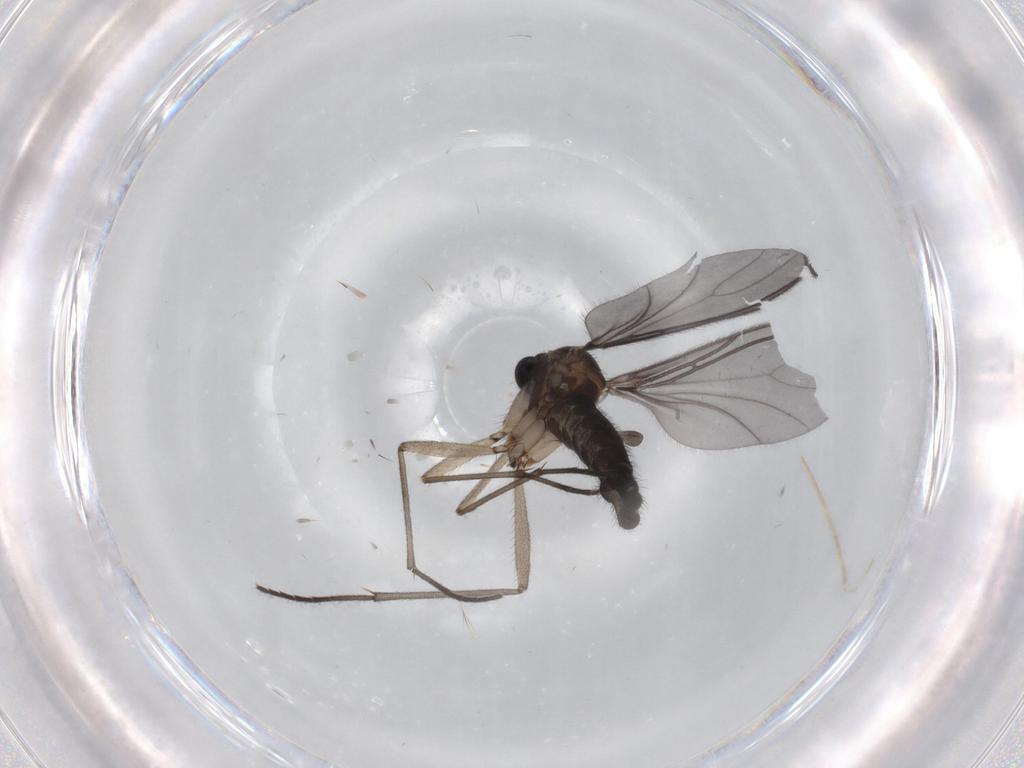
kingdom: Animalia
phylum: Arthropoda
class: Insecta
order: Diptera
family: Sciaridae
